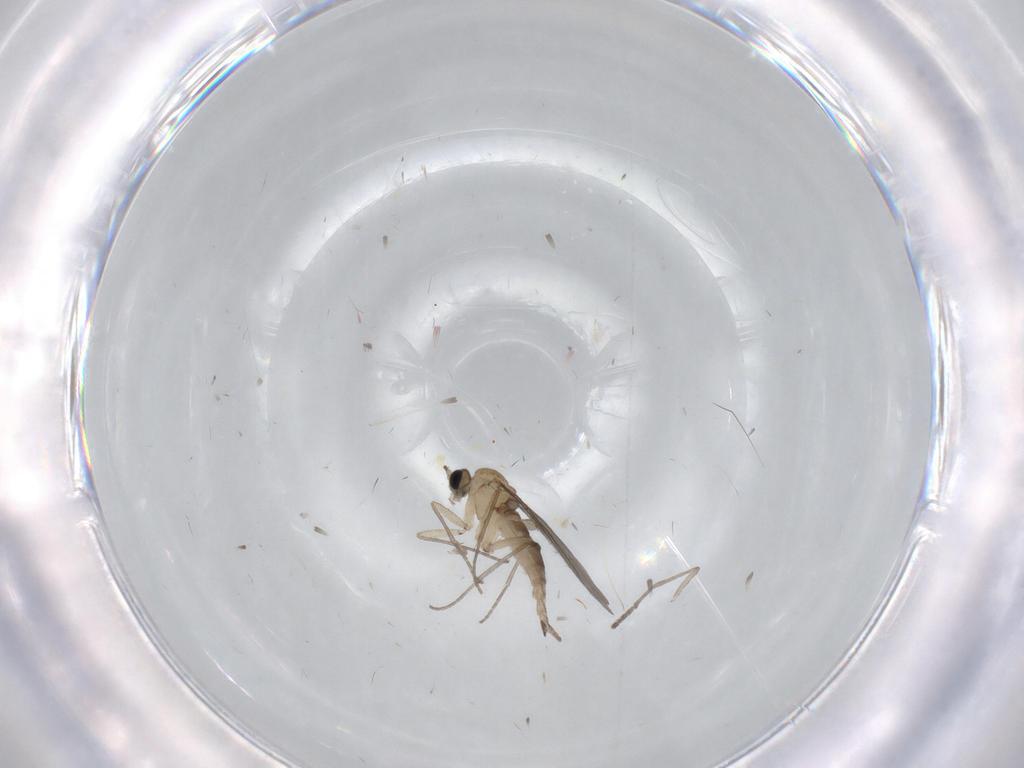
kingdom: Animalia
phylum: Arthropoda
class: Insecta
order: Diptera
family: Sciaridae
